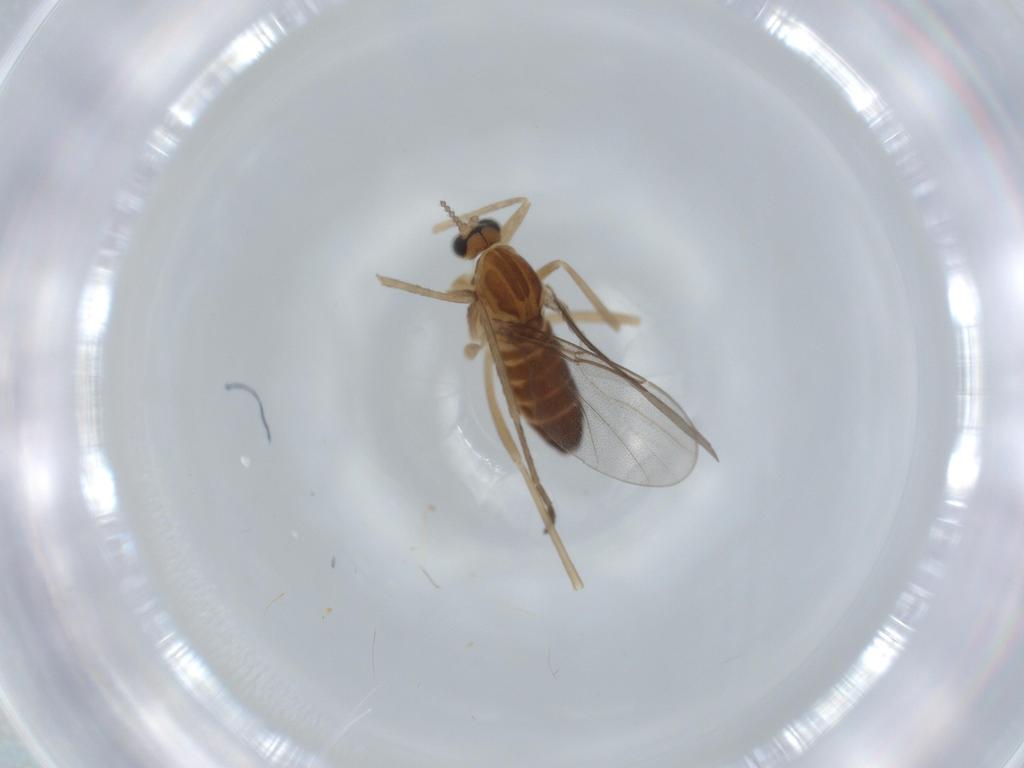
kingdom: Animalia
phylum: Arthropoda
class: Insecta
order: Diptera
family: Cecidomyiidae
